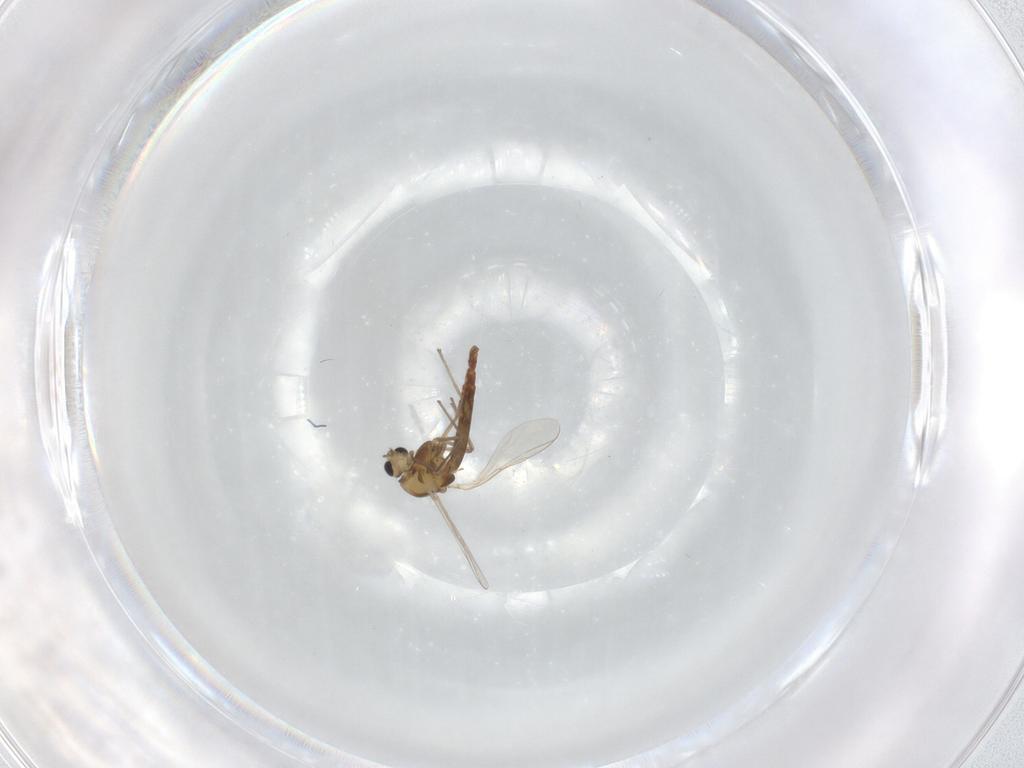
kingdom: Animalia
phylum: Arthropoda
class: Insecta
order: Diptera
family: Chironomidae
